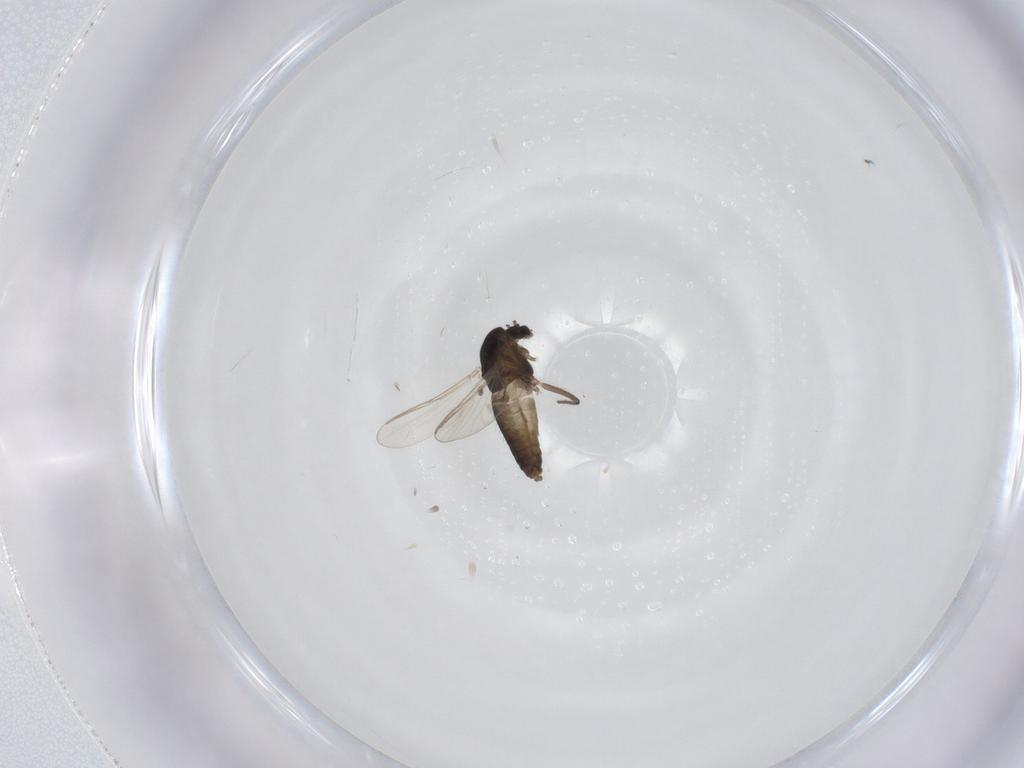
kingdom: Animalia
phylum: Arthropoda
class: Insecta
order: Diptera
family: Chironomidae
